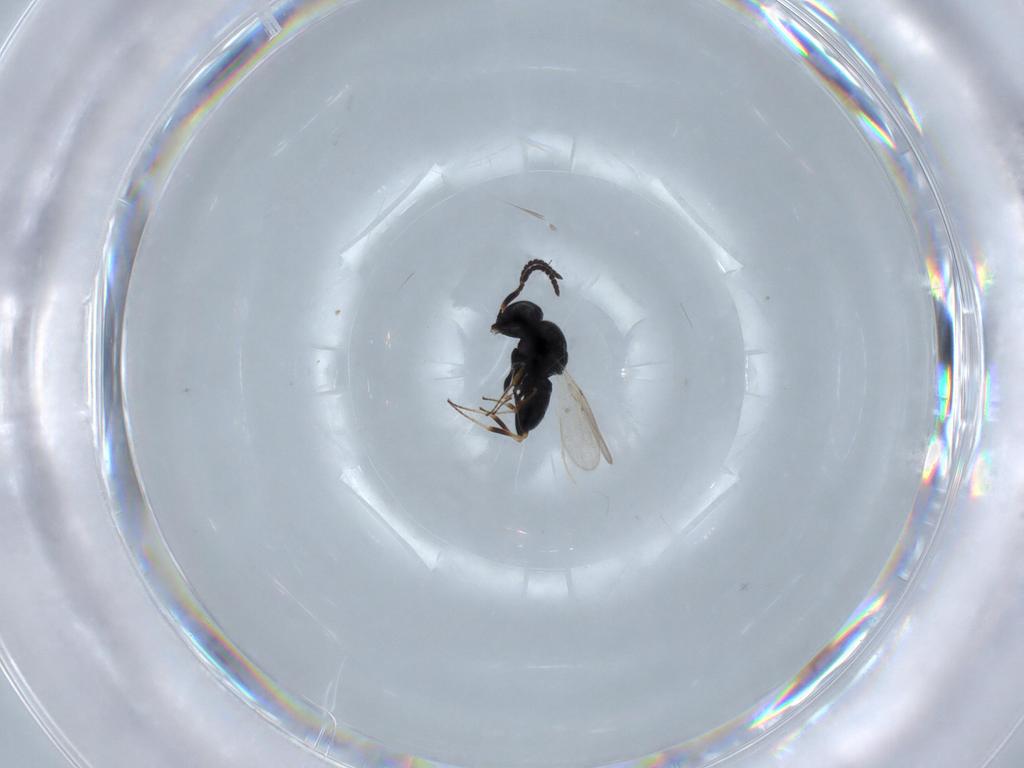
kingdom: Animalia
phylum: Arthropoda
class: Insecta
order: Hymenoptera
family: Scelionidae
